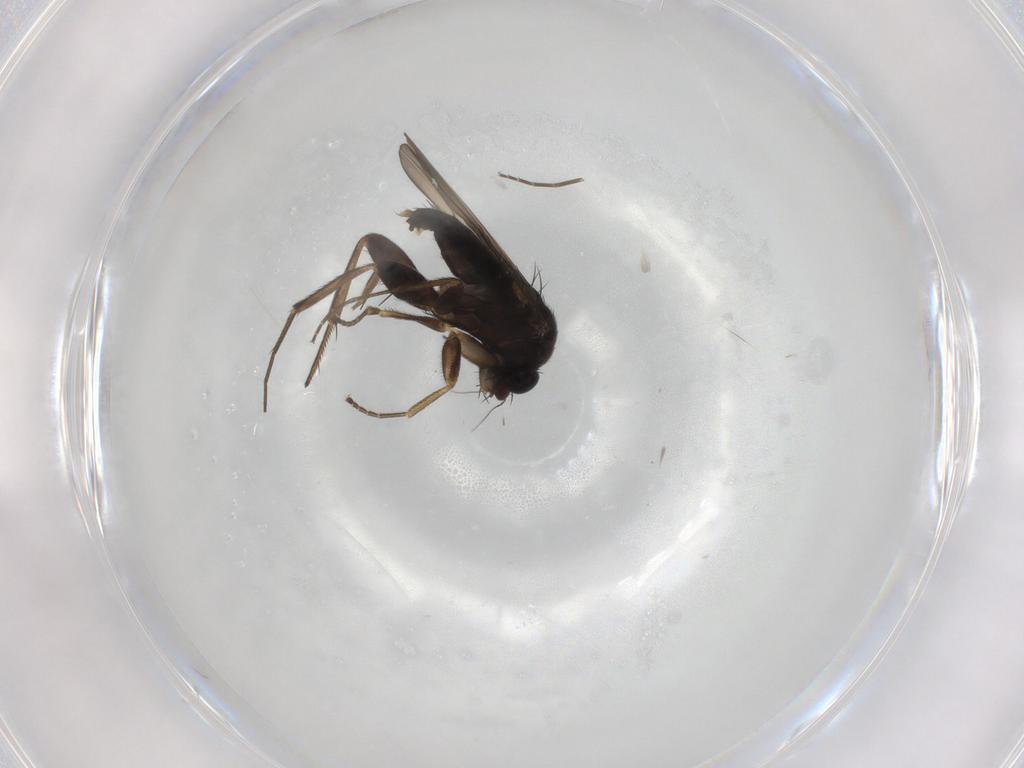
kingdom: Animalia
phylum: Arthropoda
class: Insecta
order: Diptera
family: Phoridae
